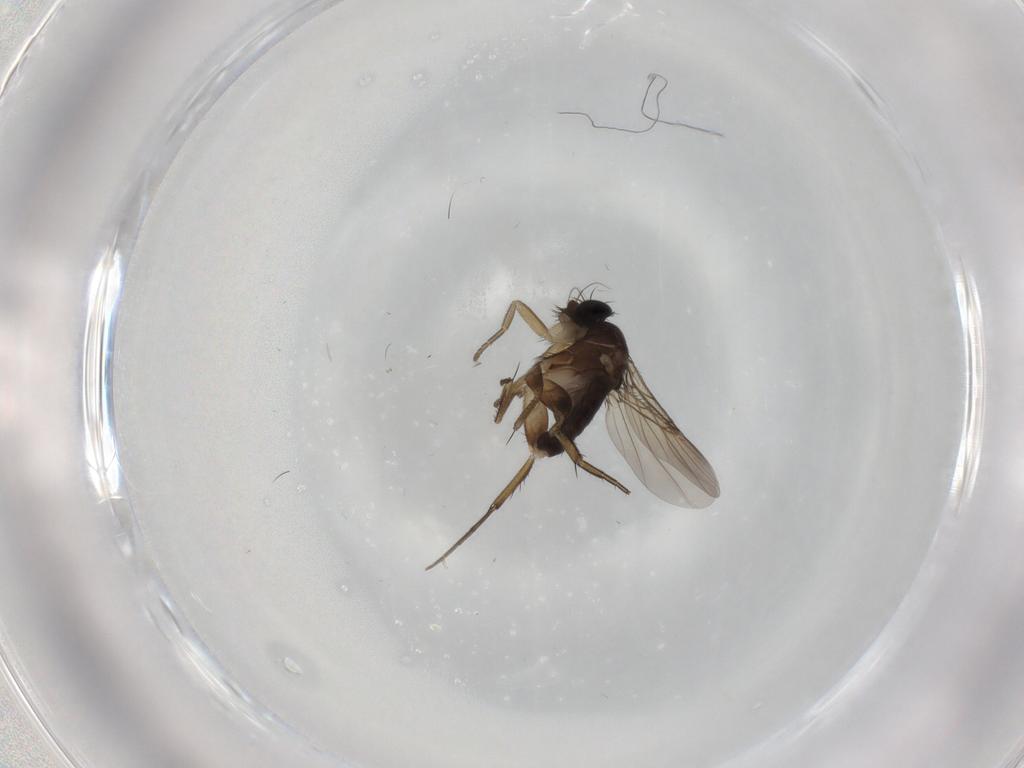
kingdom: Animalia
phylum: Arthropoda
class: Insecta
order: Diptera
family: Phoridae
